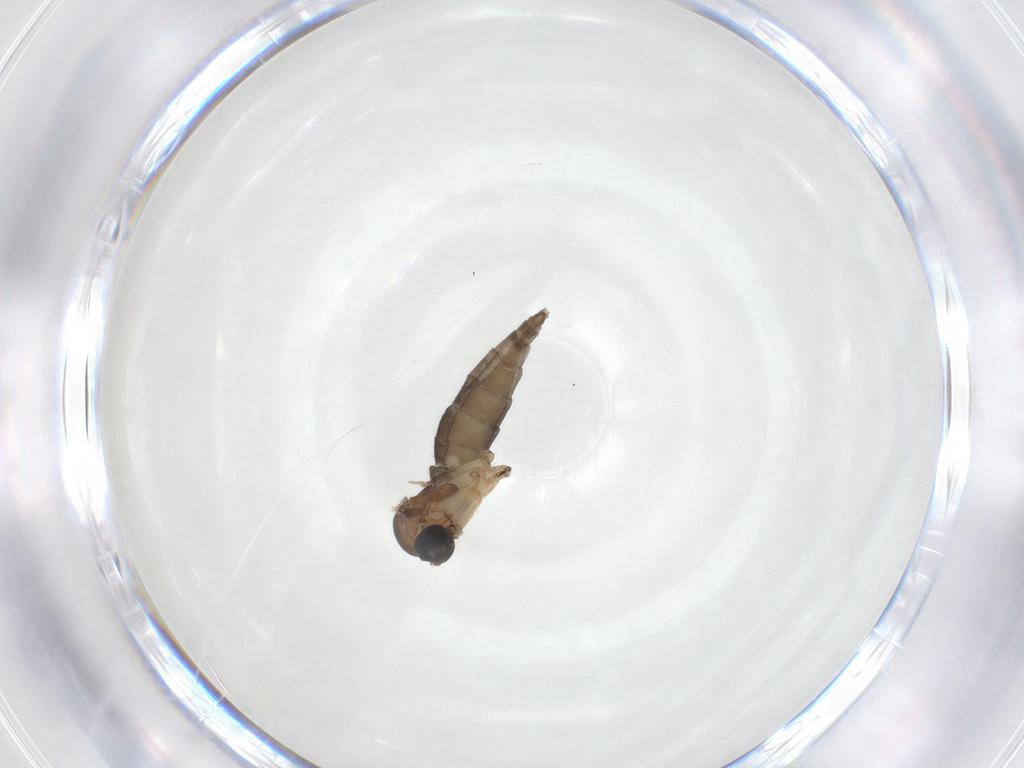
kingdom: Animalia
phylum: Arthropoda
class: Insecta
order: Diptera
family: Sciaridae
